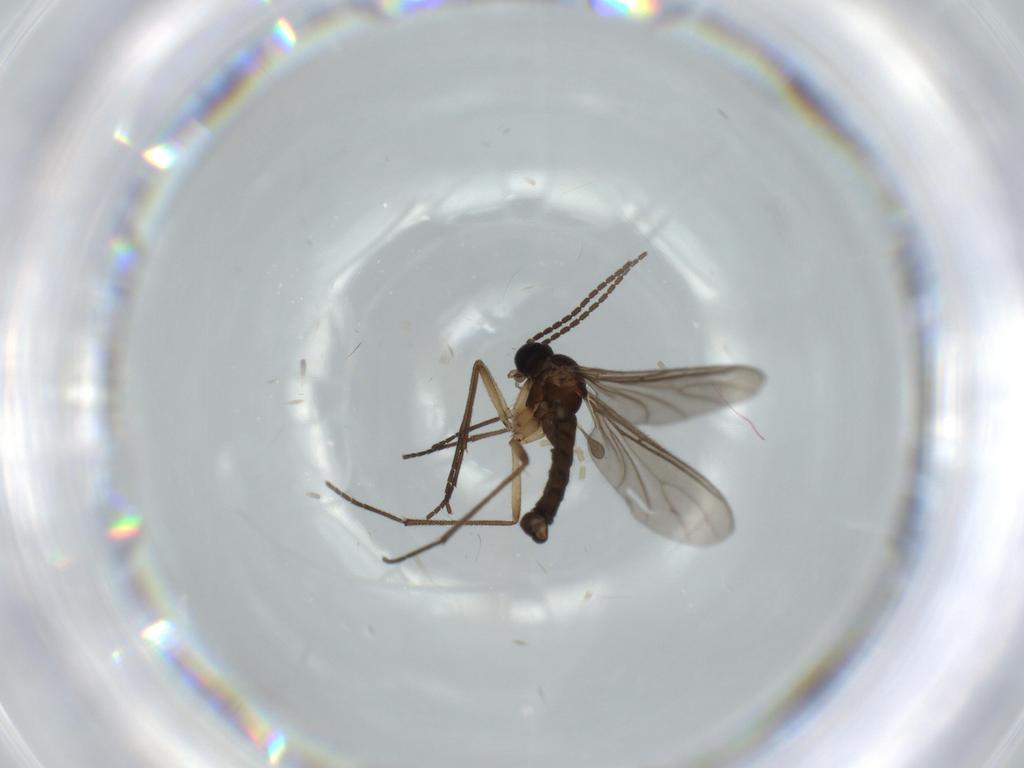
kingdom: Animalia
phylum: Arthropoda
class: Insecta
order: Diptera
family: Sciaridae
